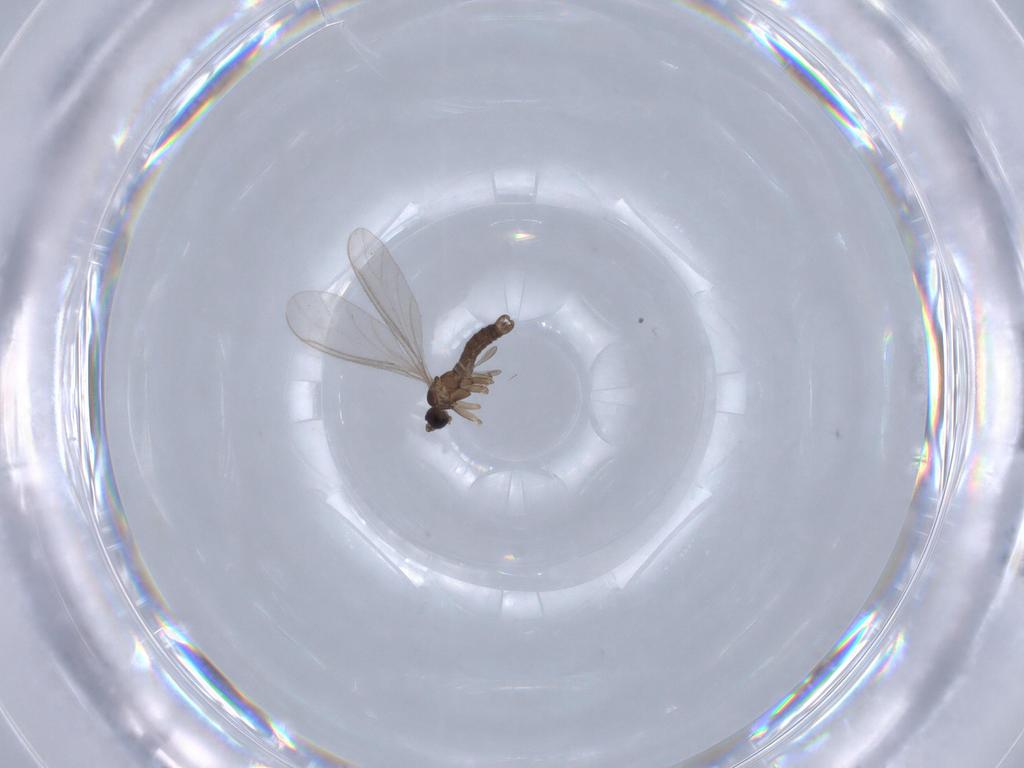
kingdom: Animalia
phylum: Arthropoda
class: Insecta
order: Diptera
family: Sciaridae
